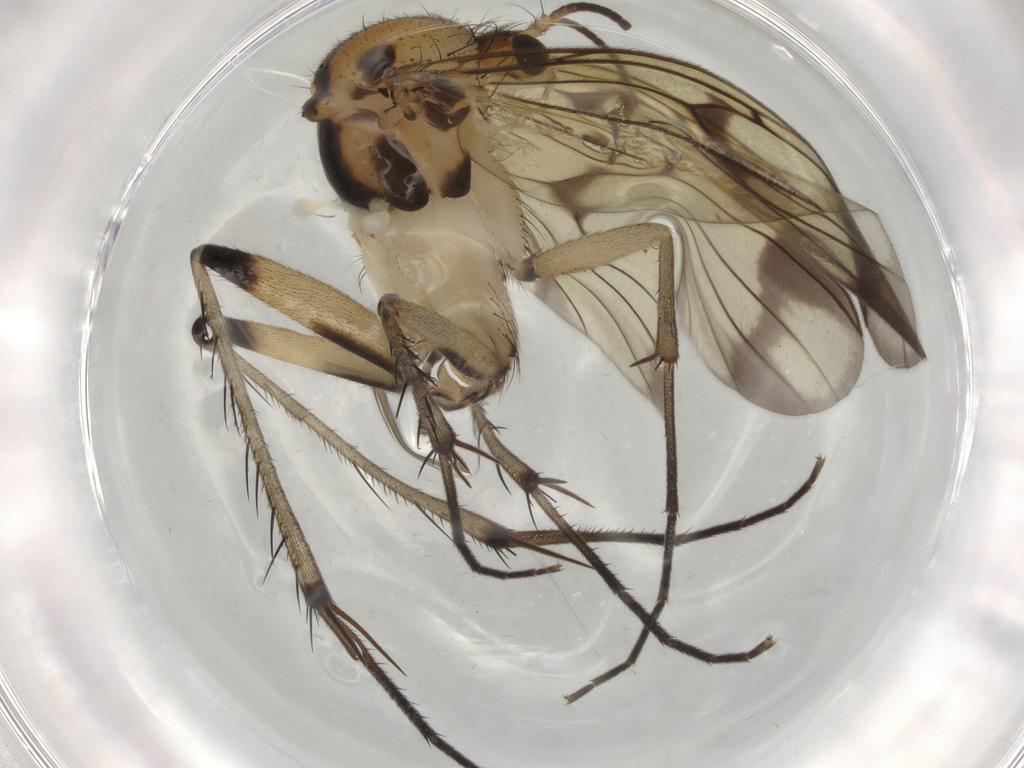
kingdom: Animalia
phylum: Arthropoda
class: Insecta
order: Diptera
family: Mycetophilidae
